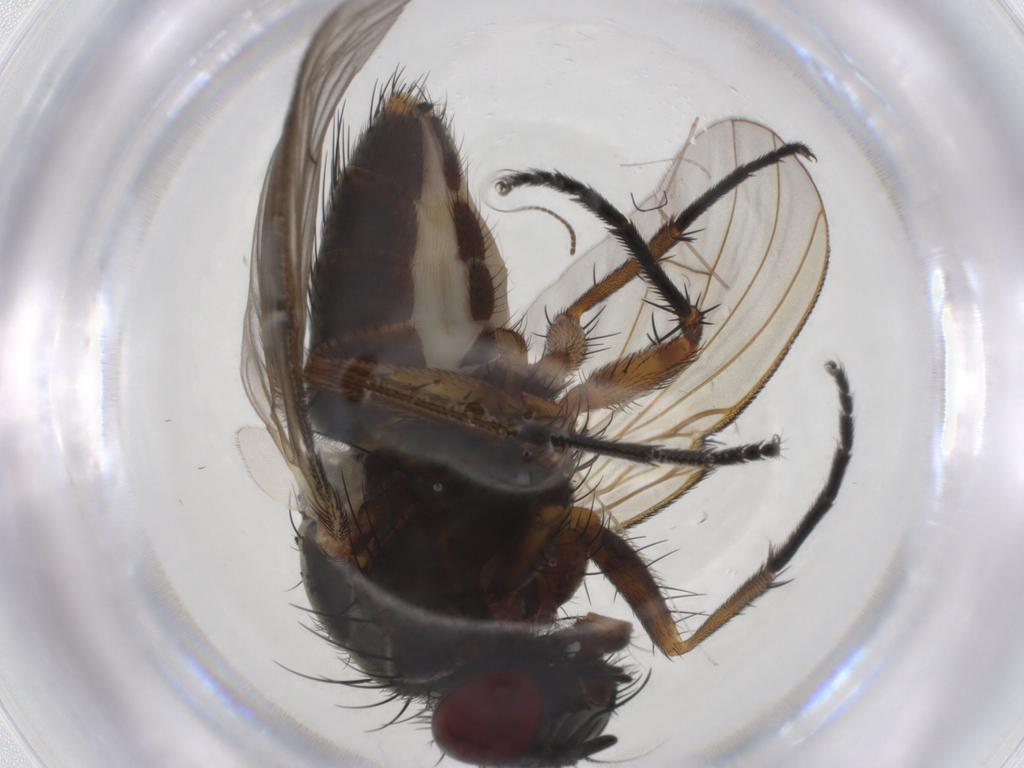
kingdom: Animalia
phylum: Arthropoda
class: Insecta
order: Diptera
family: Muscidae
